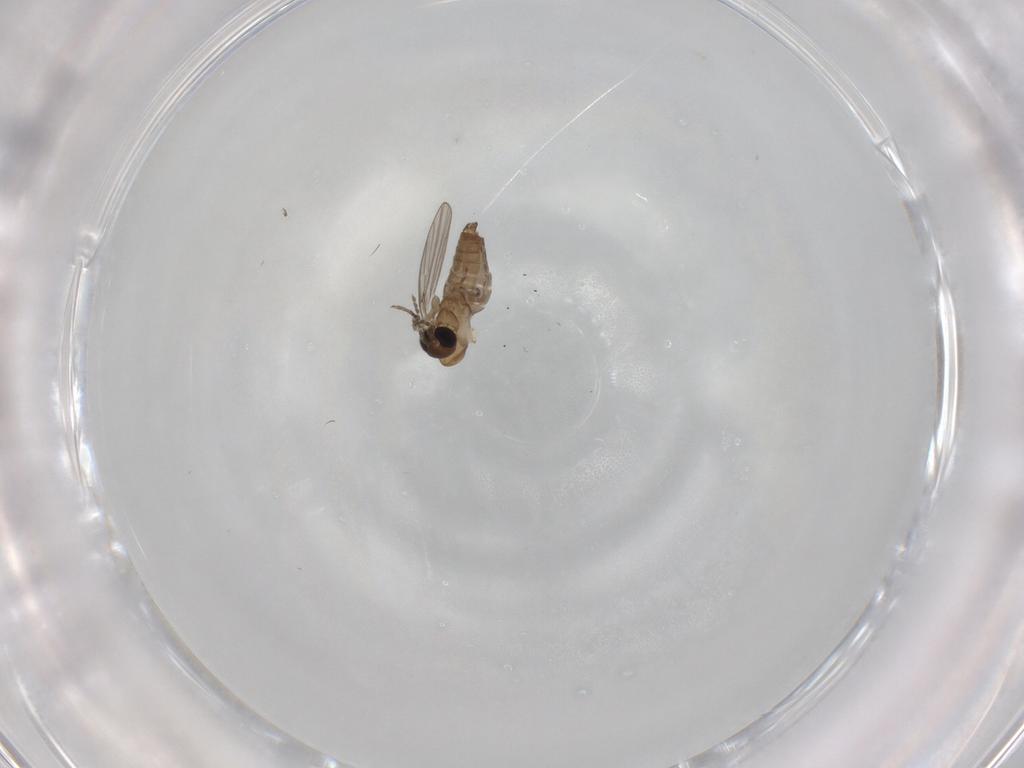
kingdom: Animalia
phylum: Arthropoda
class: Insecta
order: Diptera
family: Psychodidae
